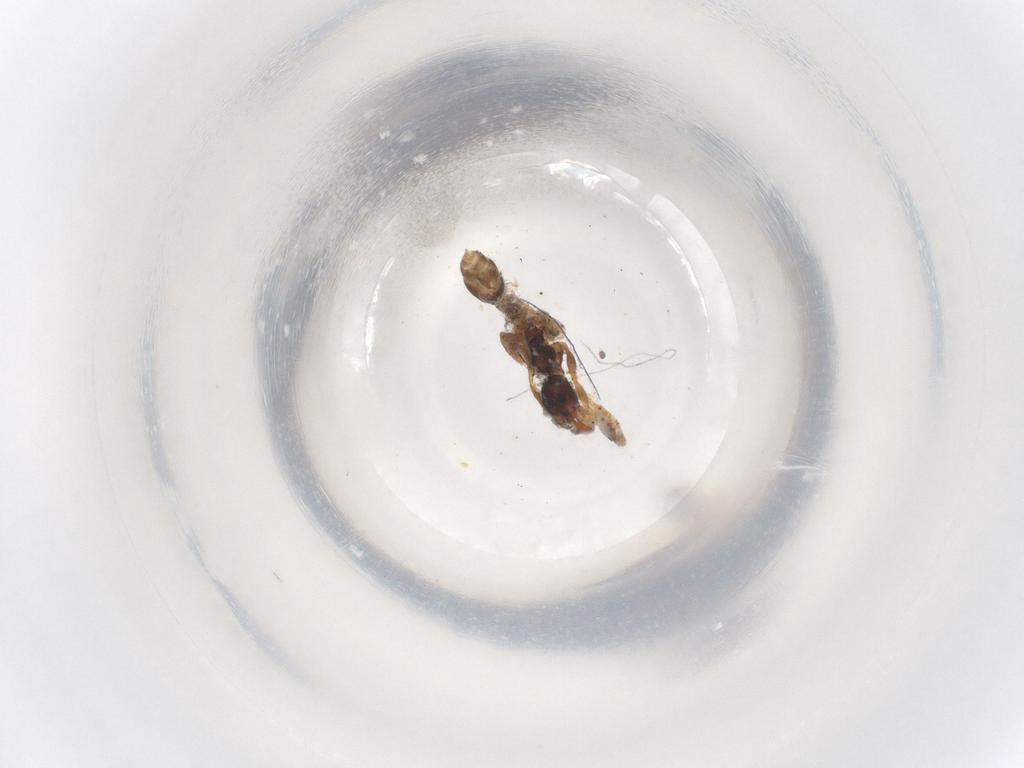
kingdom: Animalia
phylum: Arthropoda
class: Insecta
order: Hymenoptera
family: Formicidae
